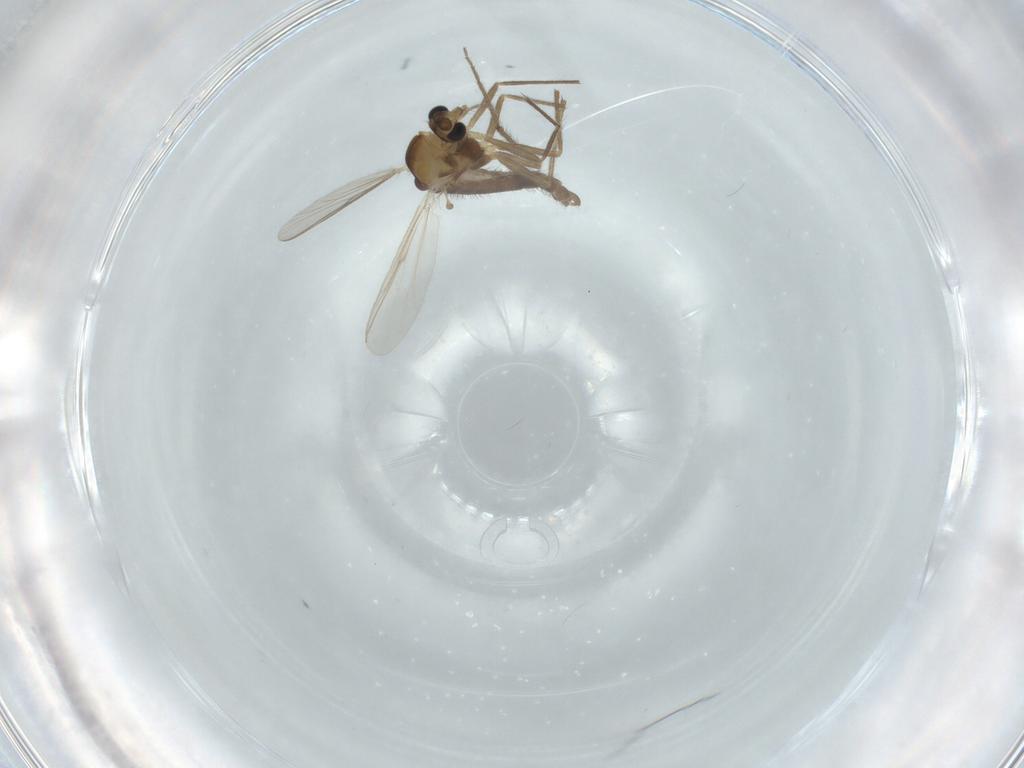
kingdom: Animalia
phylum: Arthropoda
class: Insecta
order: Diptera
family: Chironomidae
